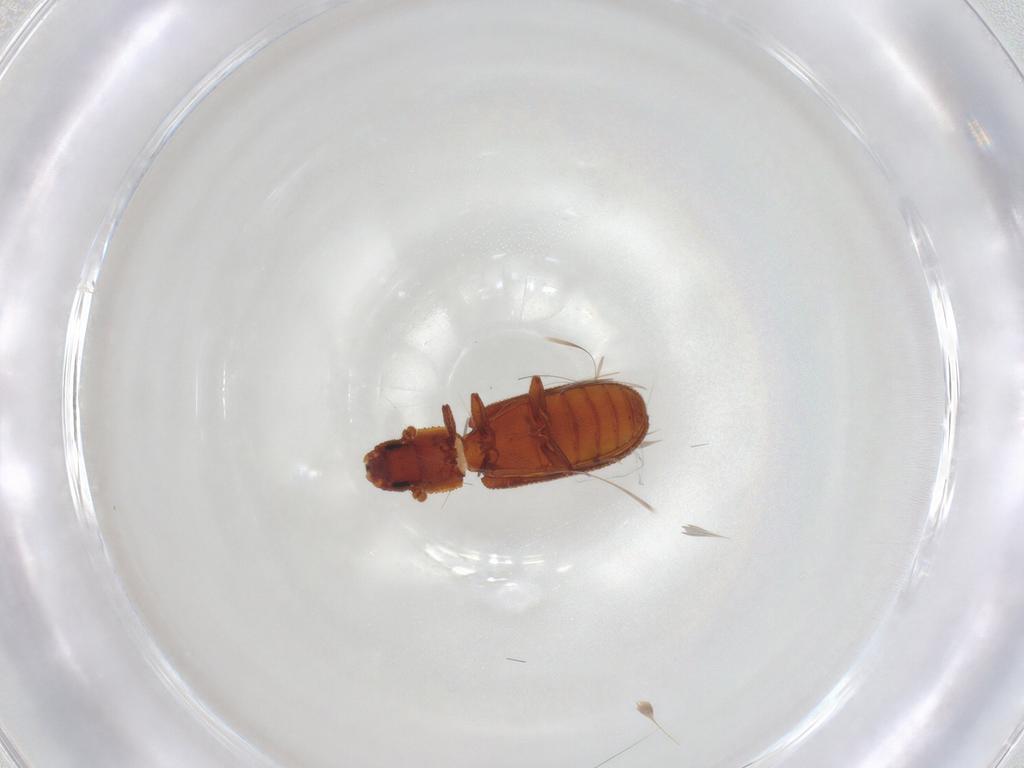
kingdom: Animalia
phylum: Arthropoda
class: Insecta
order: Coleoptera
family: Zopheridae
